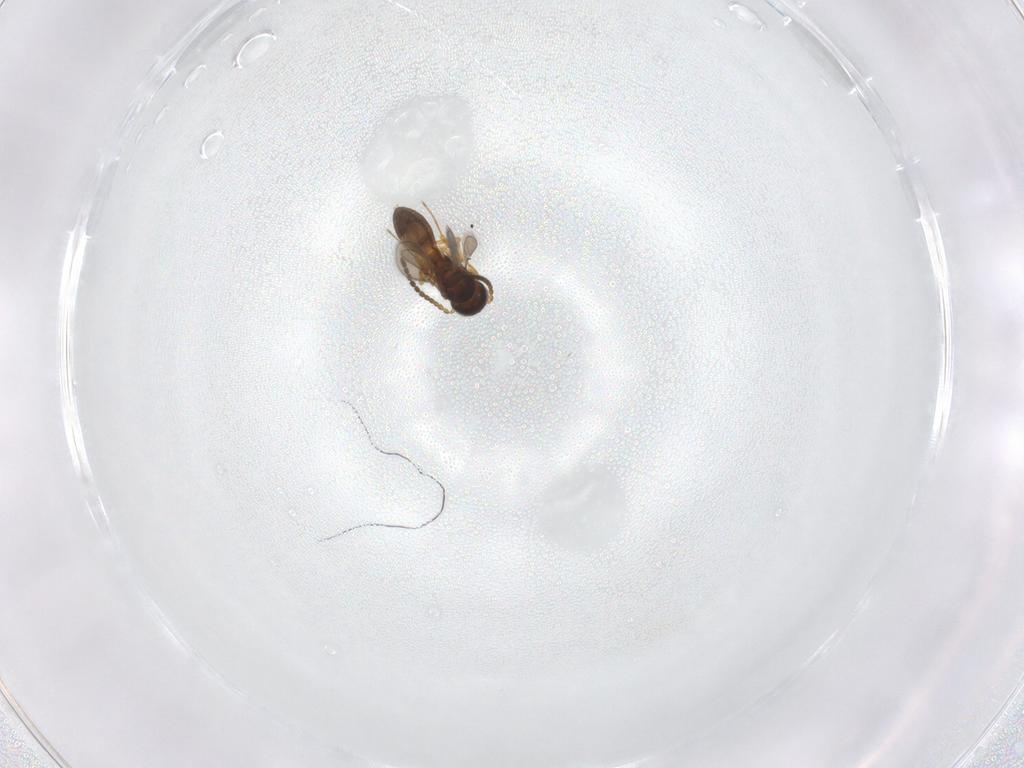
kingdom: Animalia
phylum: Arthropoda
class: Insecta
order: Hymenoptera
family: Scelionidae
